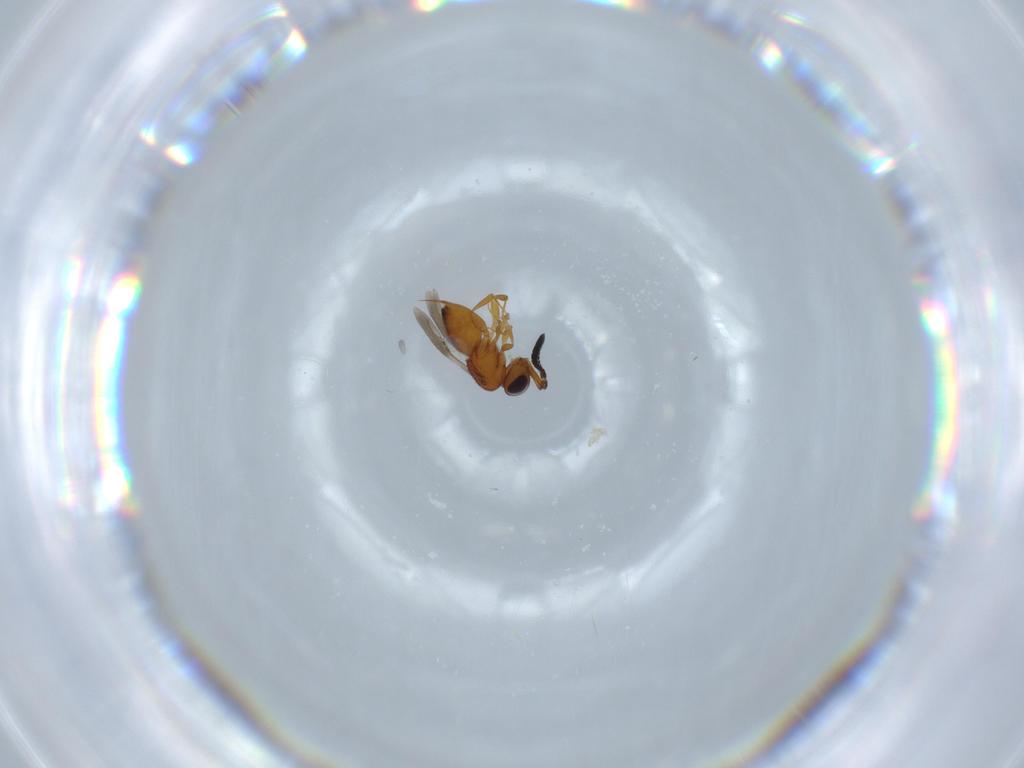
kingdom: Animalia
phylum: Arthropoda
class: Insecta
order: Hymenoptera
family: Ceraphronidae
